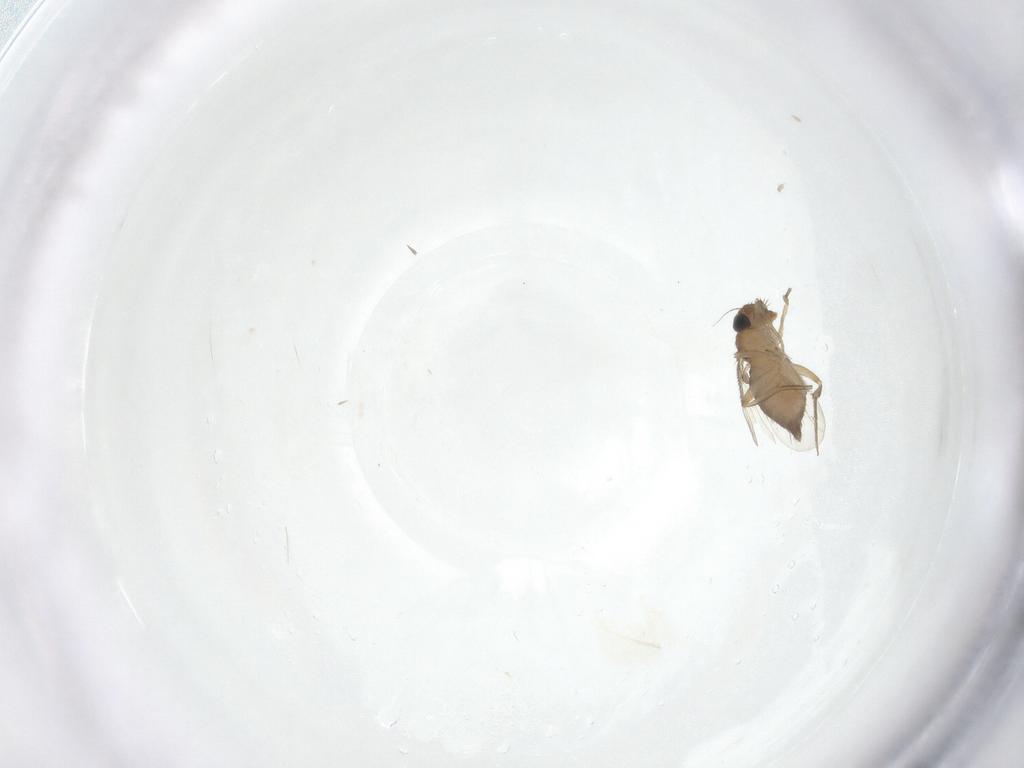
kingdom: Animalia
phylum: Arthropoda
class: Insecta
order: Diptera
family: Phoridae
